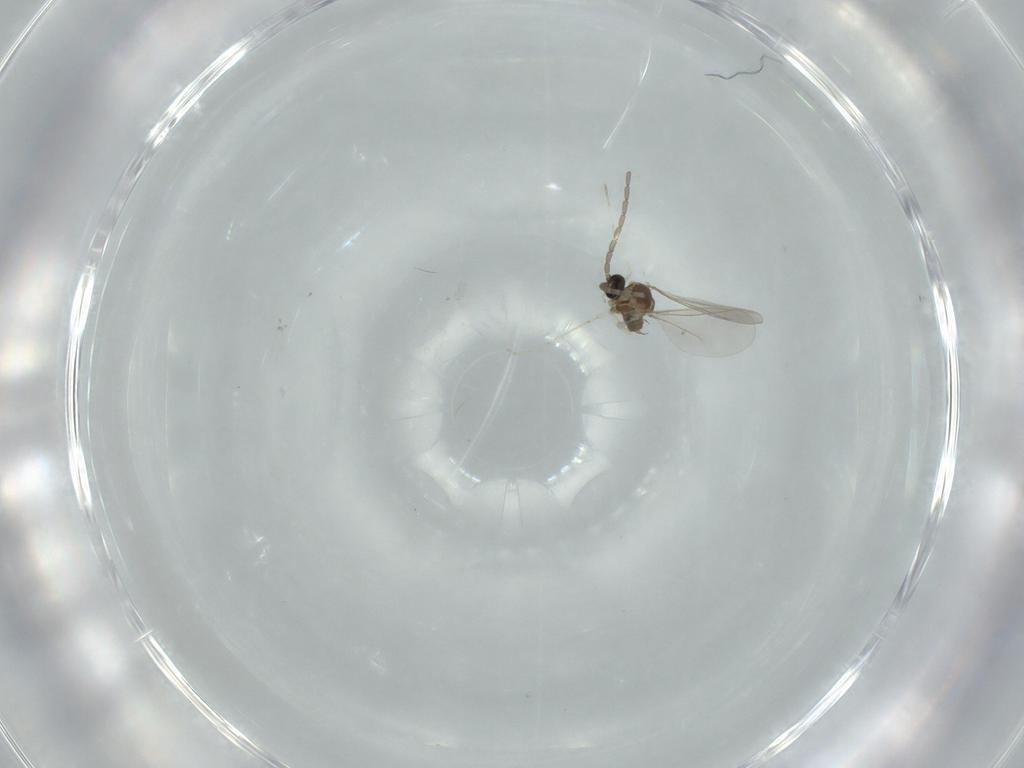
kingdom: Animalia
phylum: Arthropoda
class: Insecta
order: Diptera
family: Cecidomyiidae
